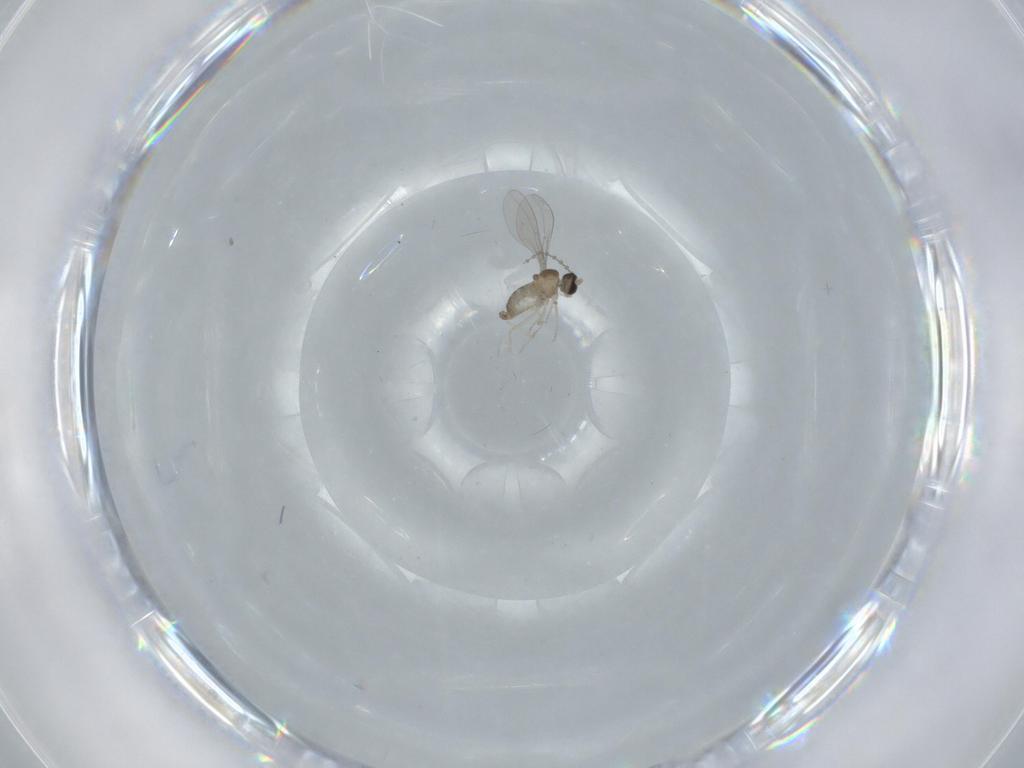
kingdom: Animalia
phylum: Arthropoda
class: Insecta
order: Diptera
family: Cecidomyiidae
